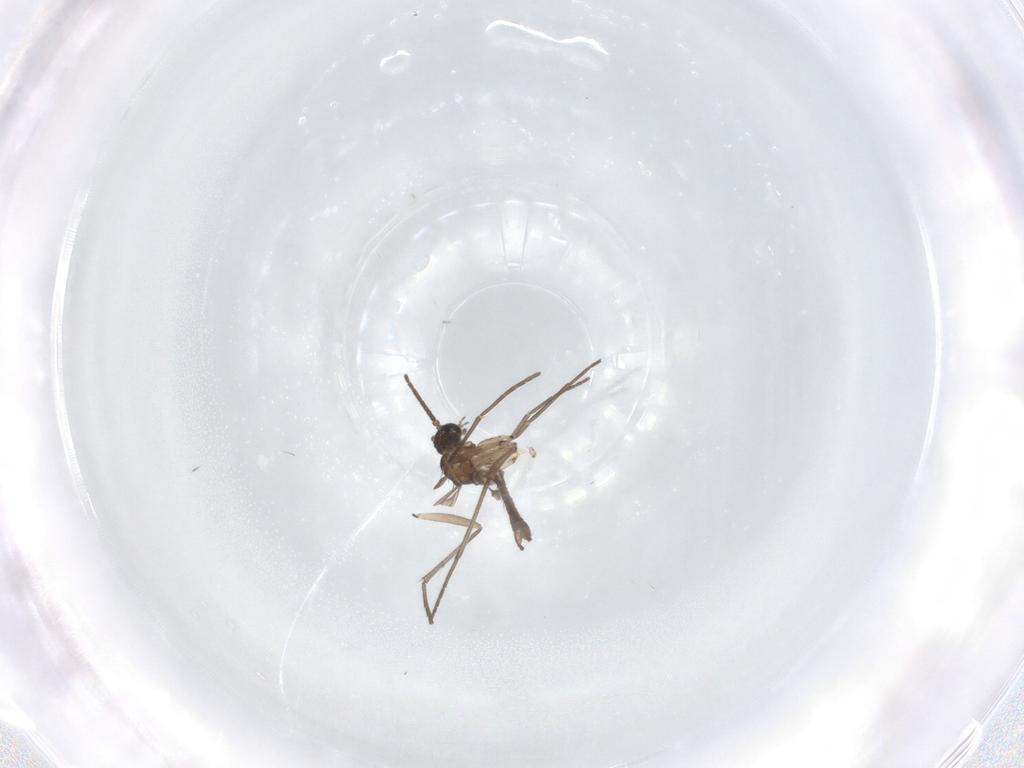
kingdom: Animalia
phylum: Arthropoda
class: Insecta
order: Diptera
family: Sciaridae
